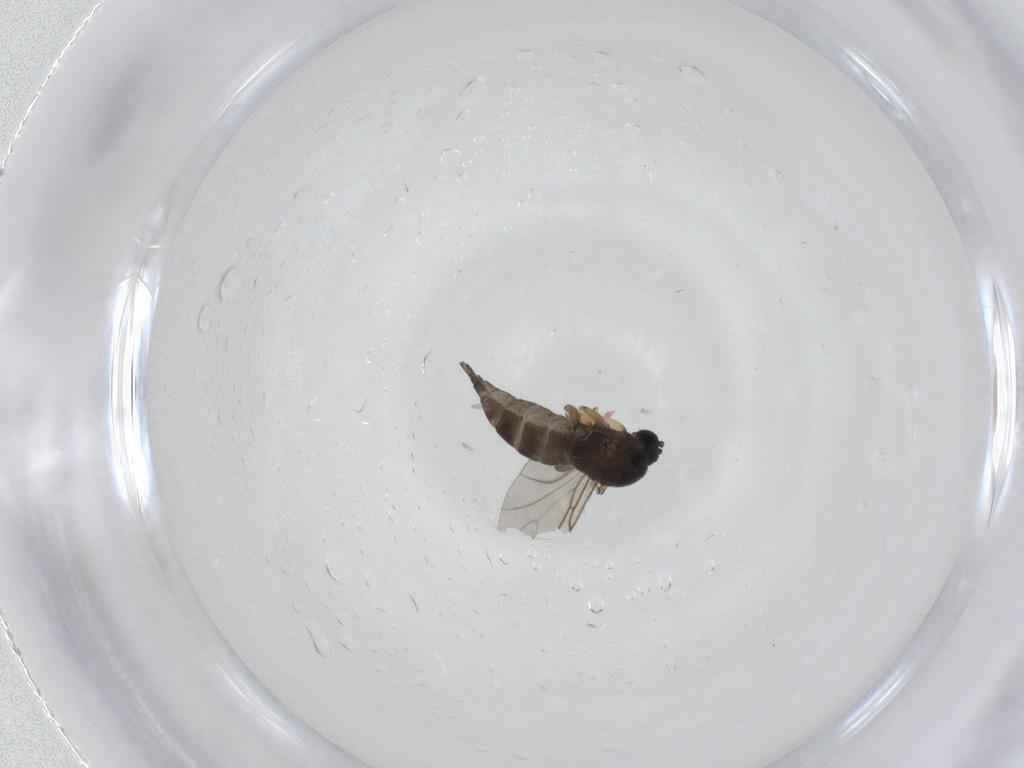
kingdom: Animalia
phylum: Arthropoda
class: Insecta
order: Diptera
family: Sciaridae
